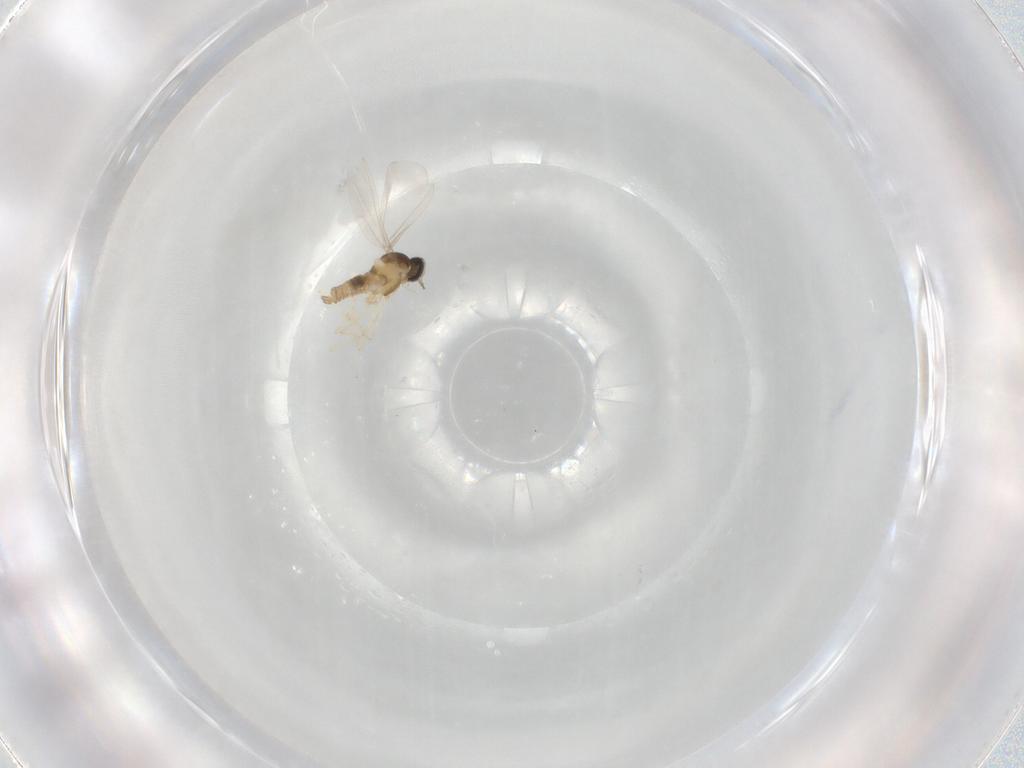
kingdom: Animalia
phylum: Arthropoda
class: Insecta
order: Diptera
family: Cecidomyiidae
